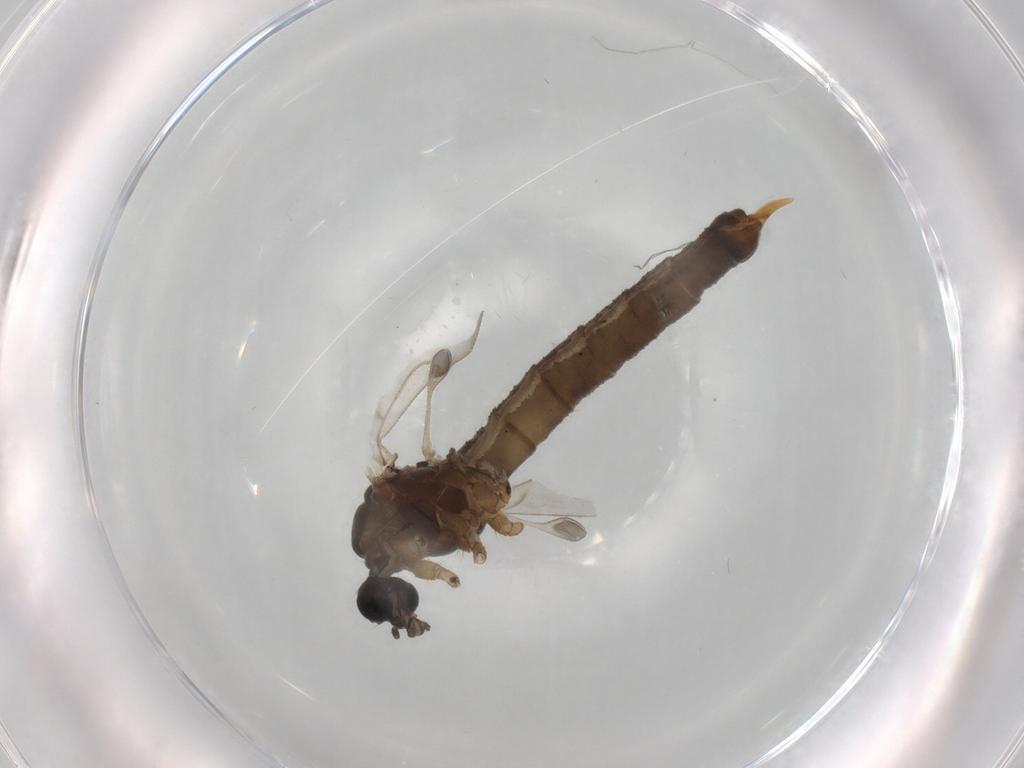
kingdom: Animalia
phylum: Arthropoda
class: Insecta
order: Diptera
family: Trichoceridae
